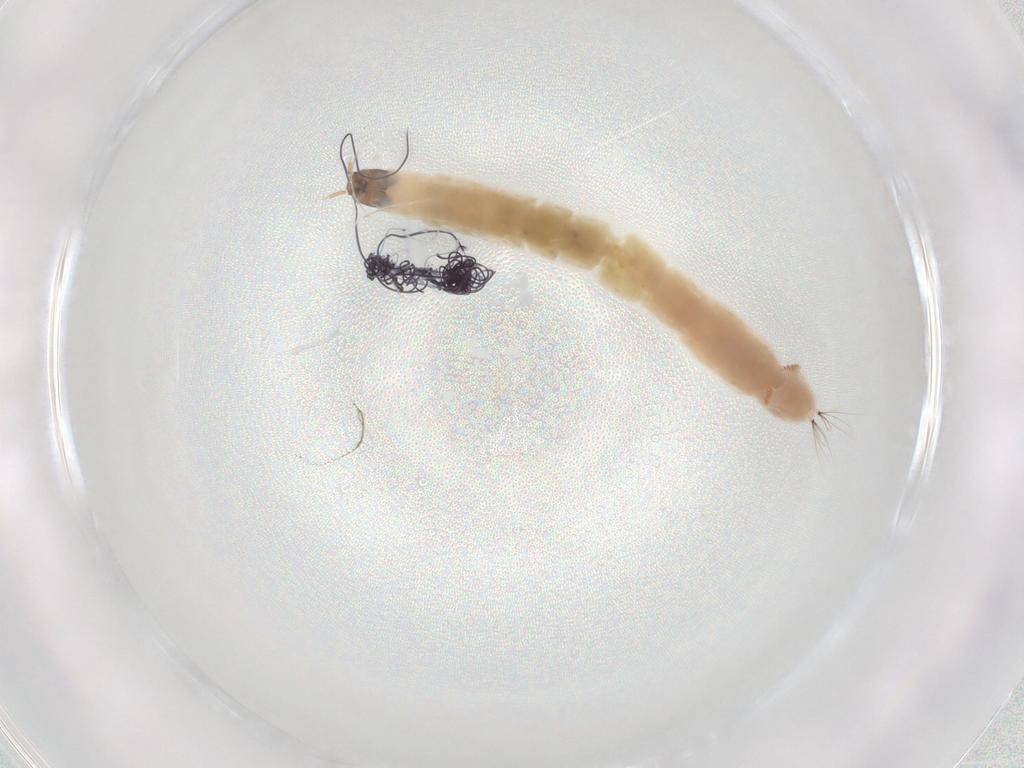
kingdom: Animalia
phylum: Arthropoda
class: Insecta
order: Diptera
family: Chironomidae
